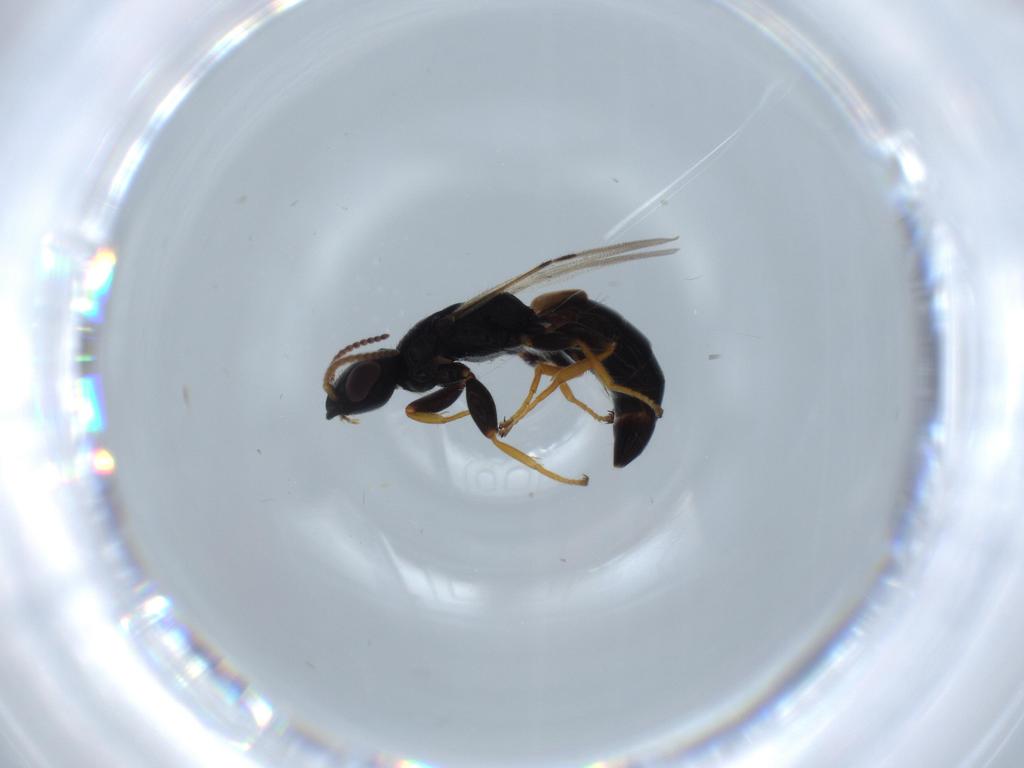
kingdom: Animalia
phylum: Arthropoda
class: Insecta
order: Hymenoptera
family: Bethylidae
